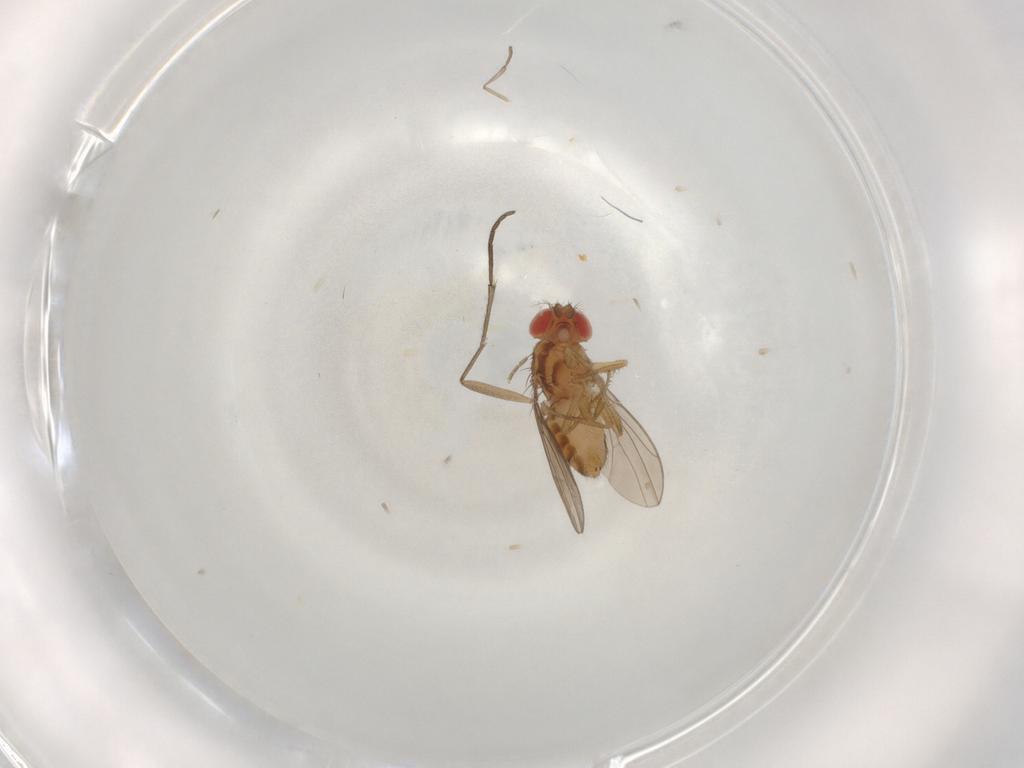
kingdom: Animalia
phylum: Arthropoda
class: Insecta
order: Diptera
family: Drosophilidae
